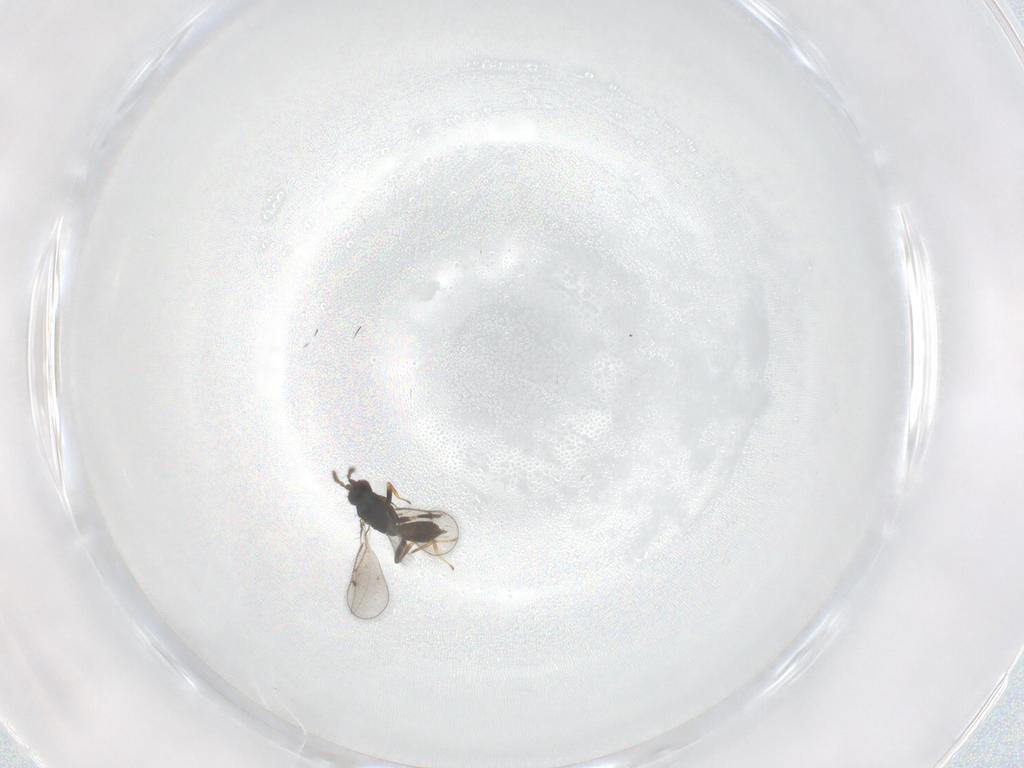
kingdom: Animalia
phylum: Arthropoda
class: Insecta
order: Hymenoptera
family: Eulophidae
